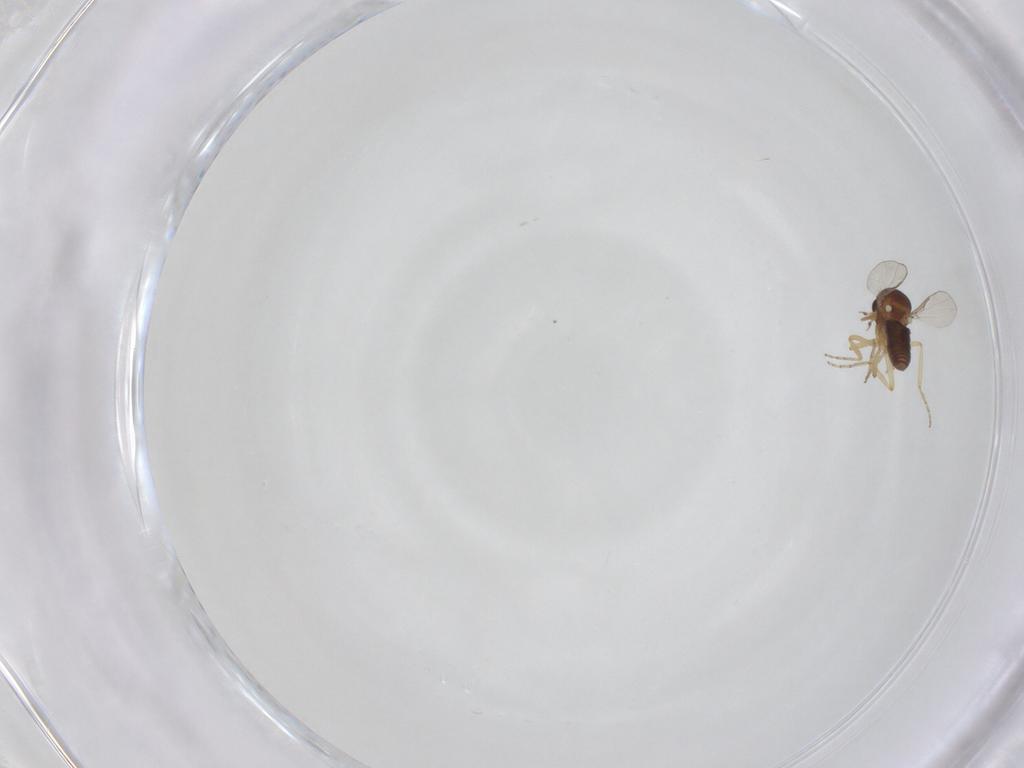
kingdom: Animalia
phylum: Arthropoda
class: Insecta
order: Diptera
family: Ceratopogonidae
